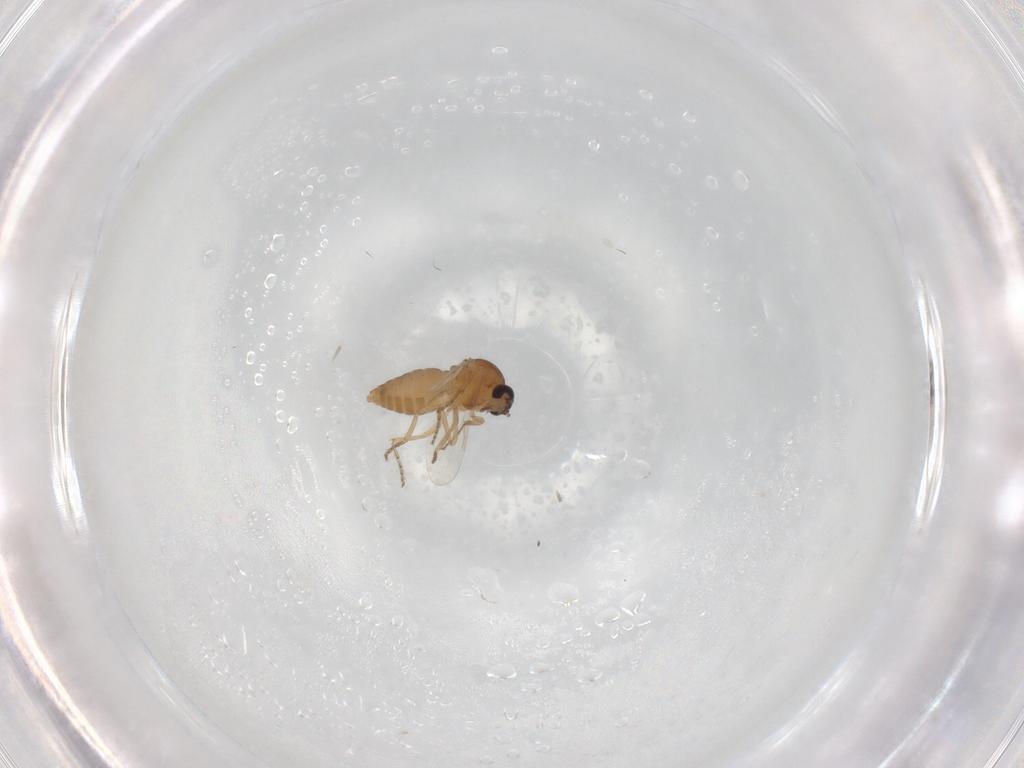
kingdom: Animalia
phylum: Arthropoda
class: Insecta
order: Diptera
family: Ceratopogonidae
